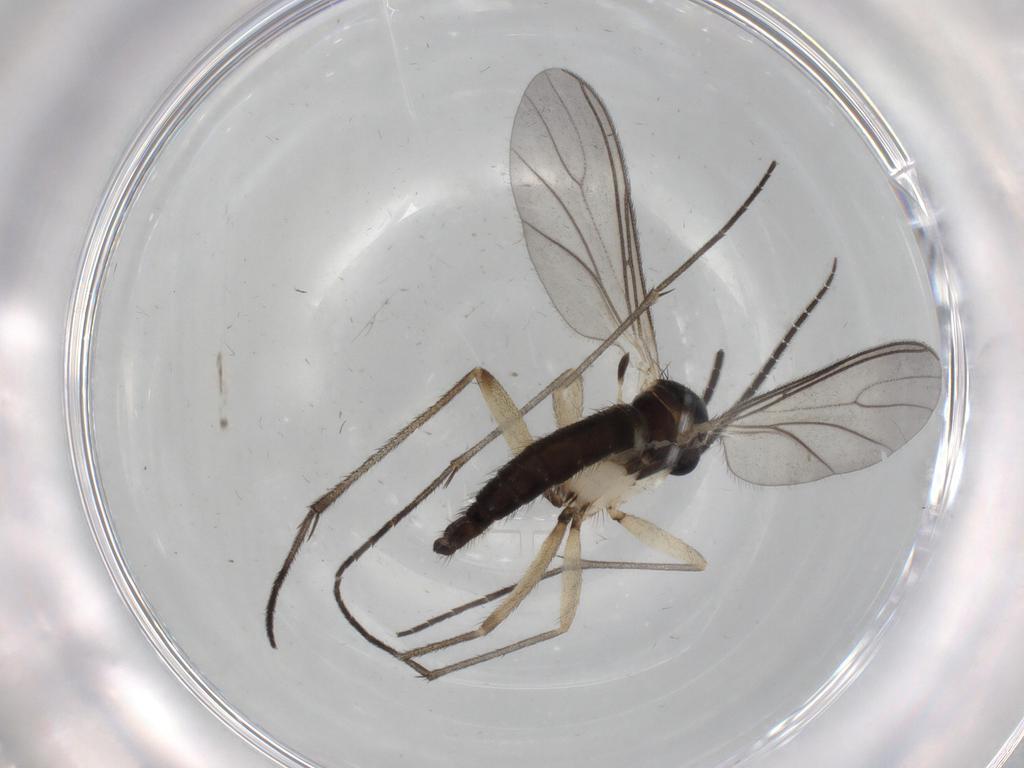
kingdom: Animalia
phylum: Arthropoda
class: Insecta
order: Diptera
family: Sciaridae
